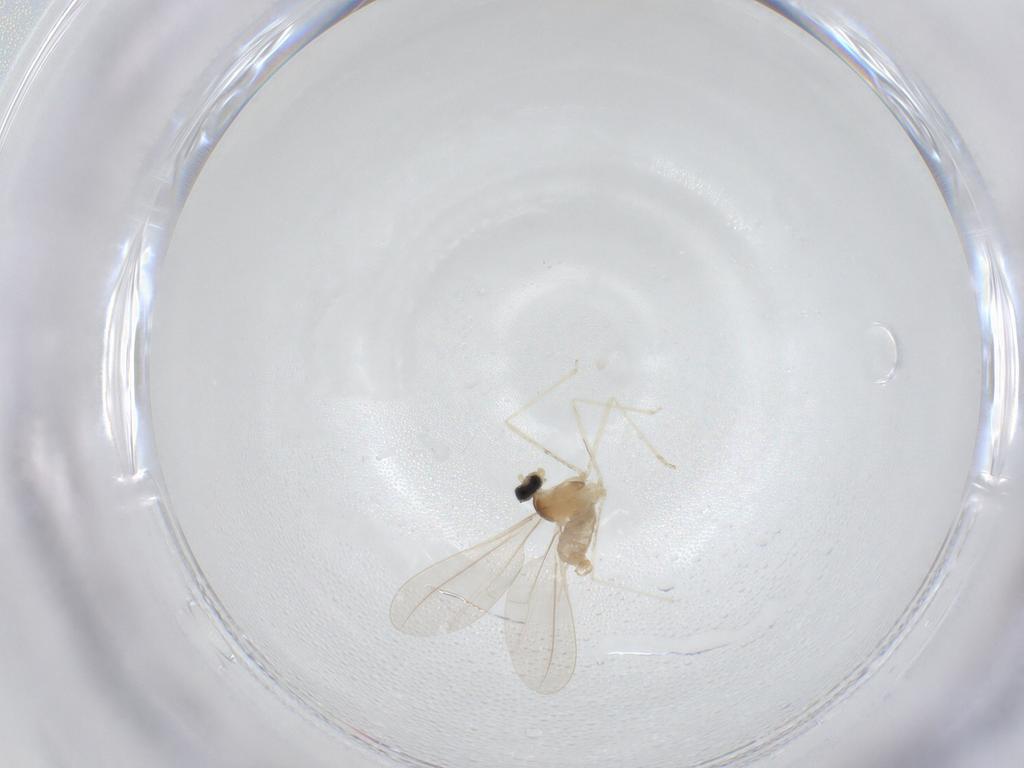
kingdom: Animalia
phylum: Arthropoda
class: Insecta
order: Diptera
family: Cecidomyiidae
